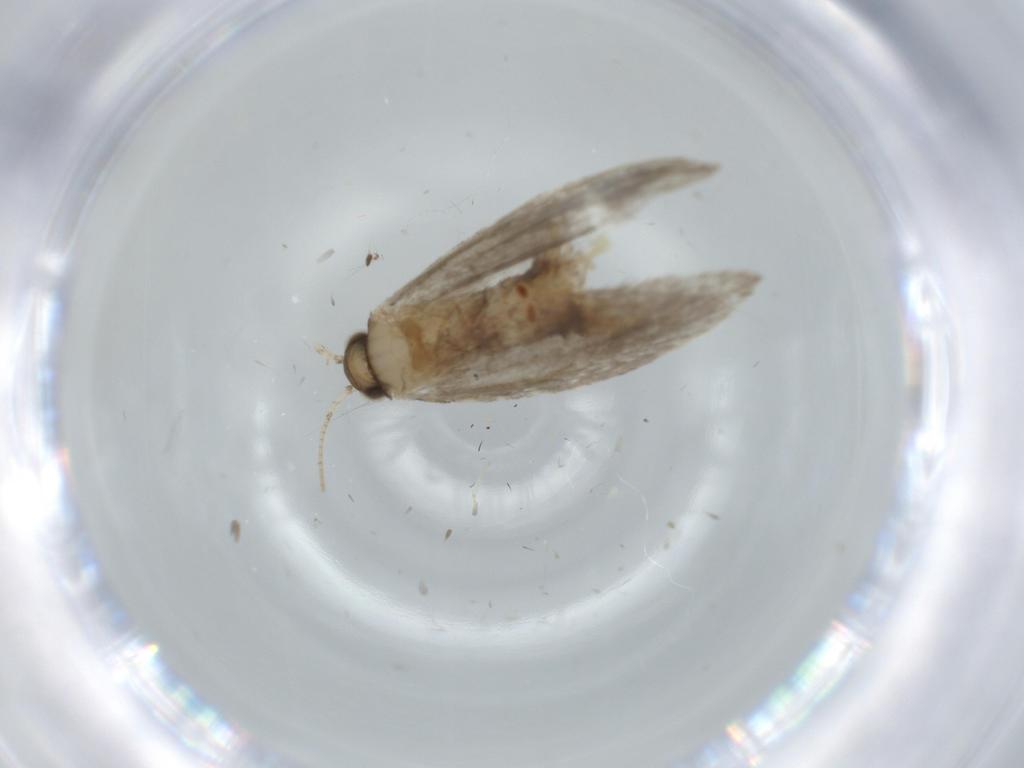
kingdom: Animalia
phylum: Arthropoda
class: Insecta
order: Lepidoptera
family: Tineidae
